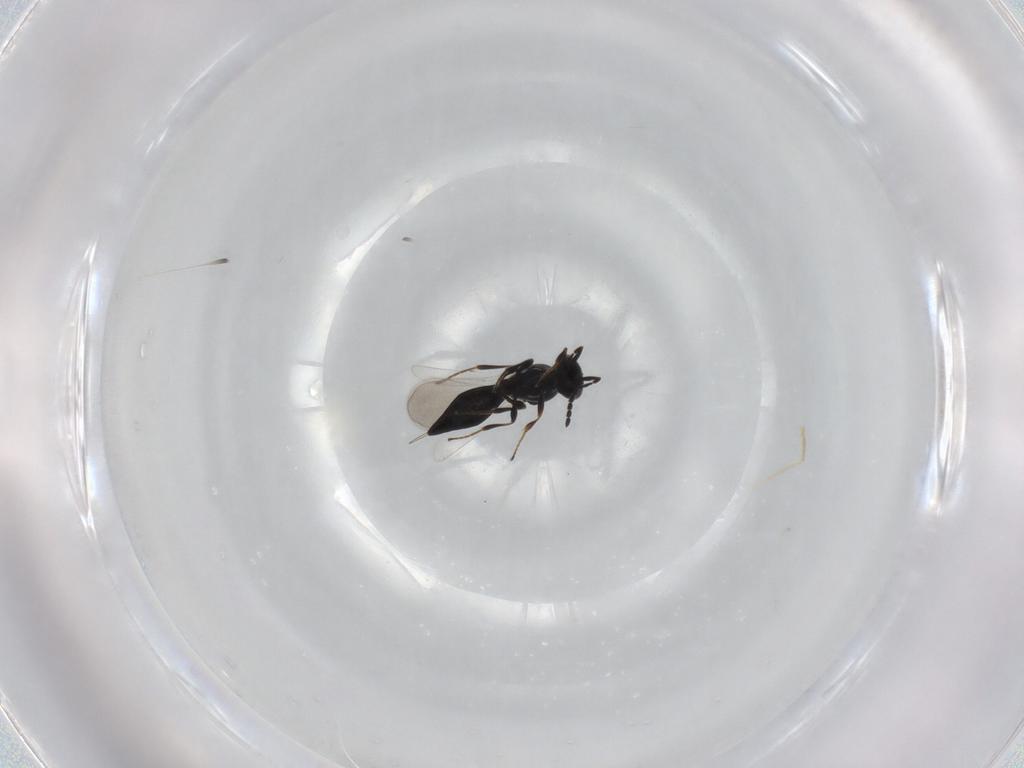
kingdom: Animalia
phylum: Arthropoda
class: Insecta
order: Hymenoptera
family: Platygastridae
